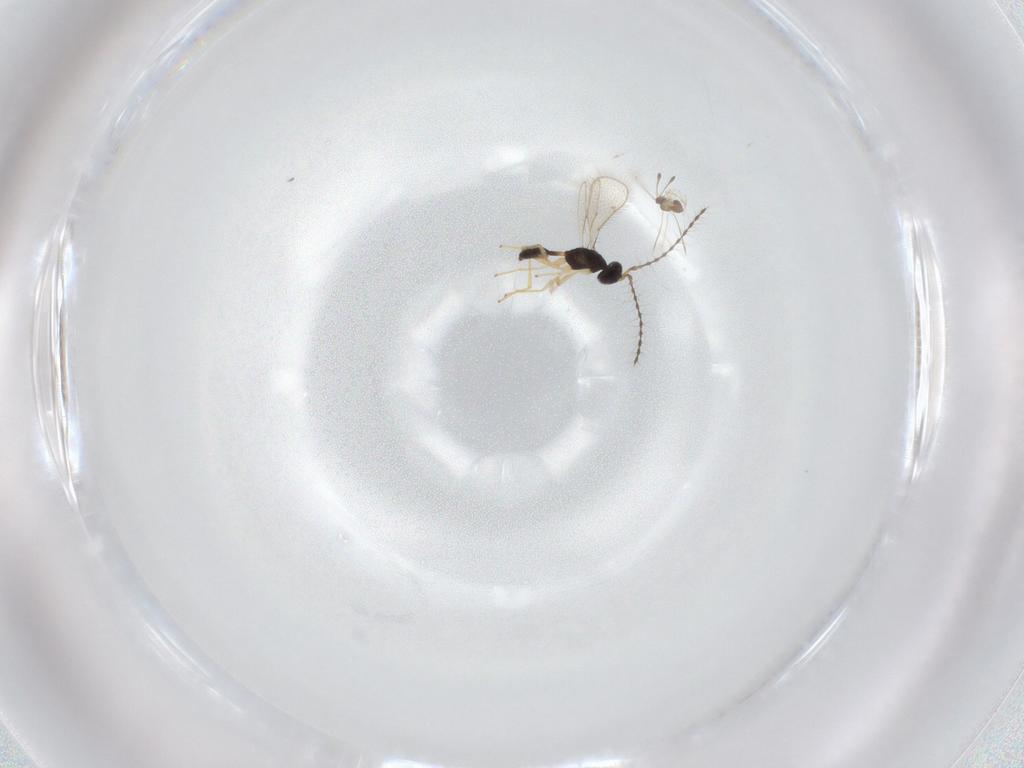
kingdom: Animalia
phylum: Arthropoda
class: Insecta
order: Hymenoptera
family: Diparidae
